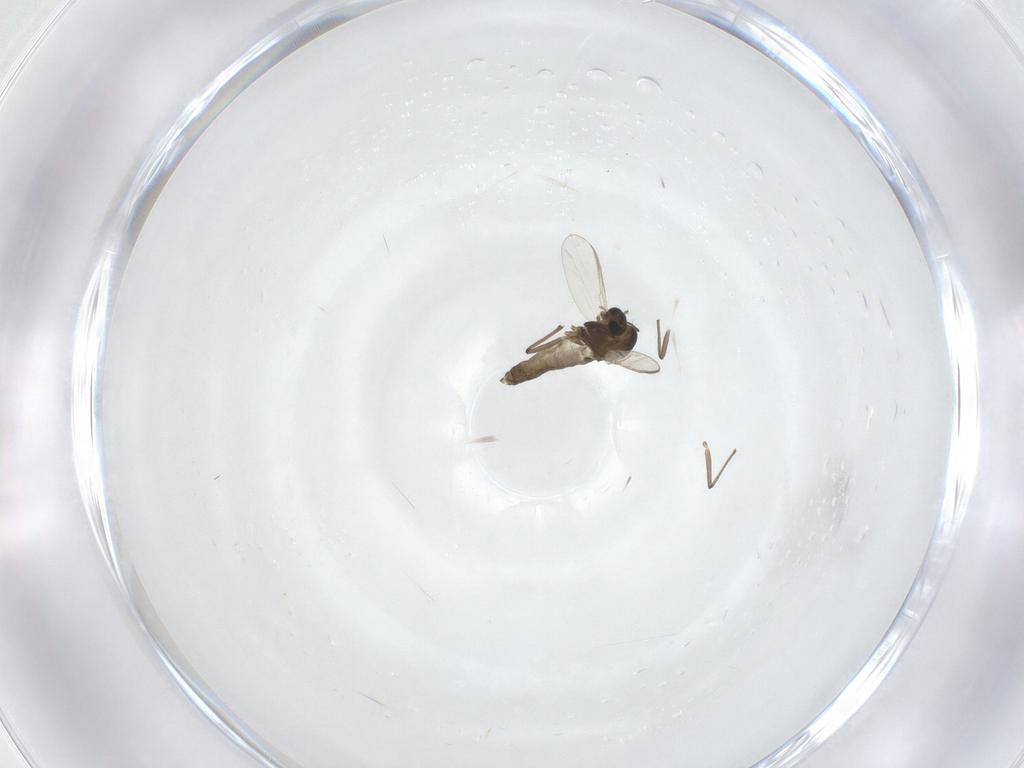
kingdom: Animalia
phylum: Arthropoda
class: Insecta
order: Diptera
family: Chironomidae
